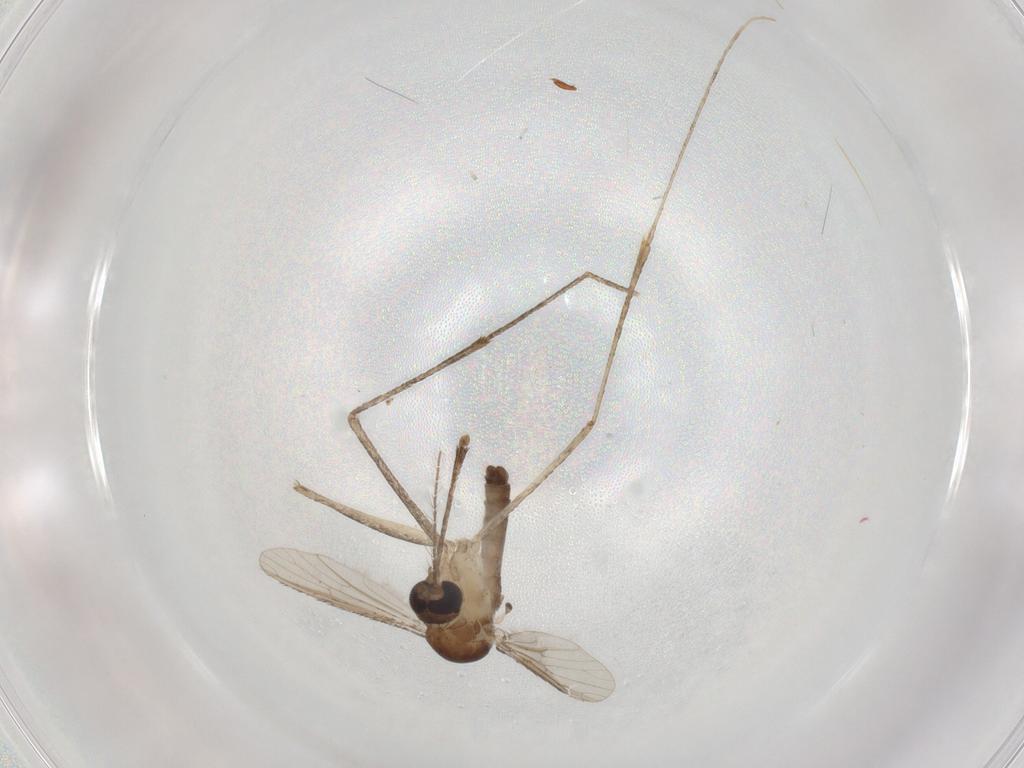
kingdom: Animalia
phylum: Arthropoda
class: Insecta
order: Diptera
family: Culicidae
